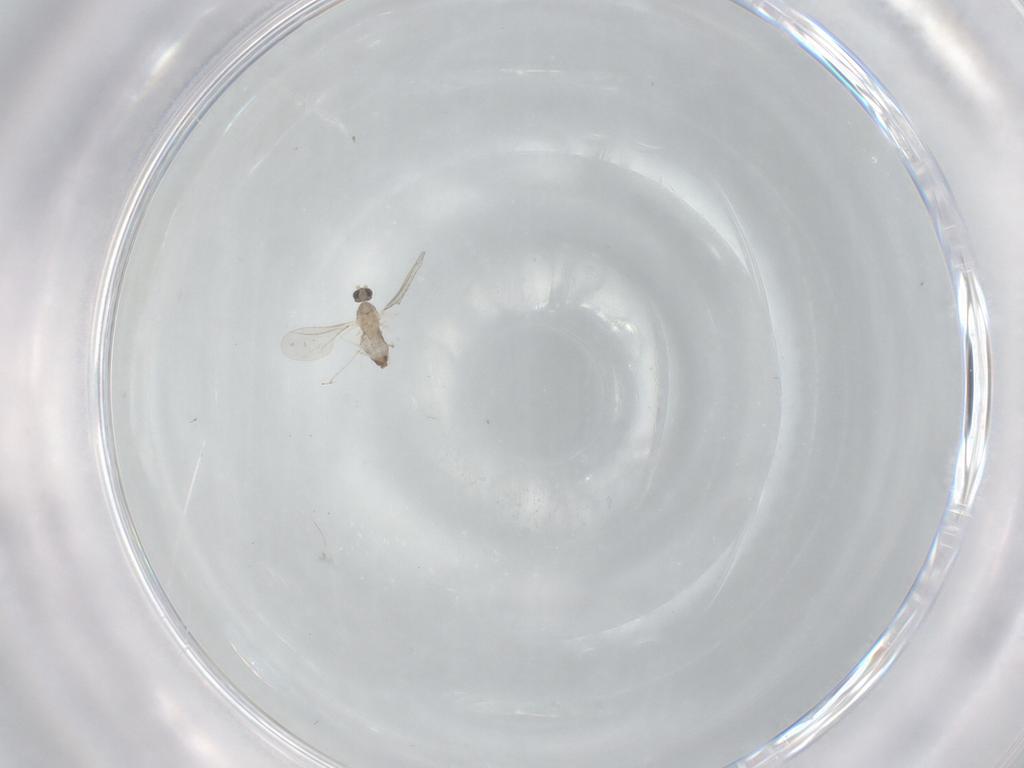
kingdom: Animalia
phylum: Arthropoda
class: Insecta
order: Diptera
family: Cecidomyiidae
